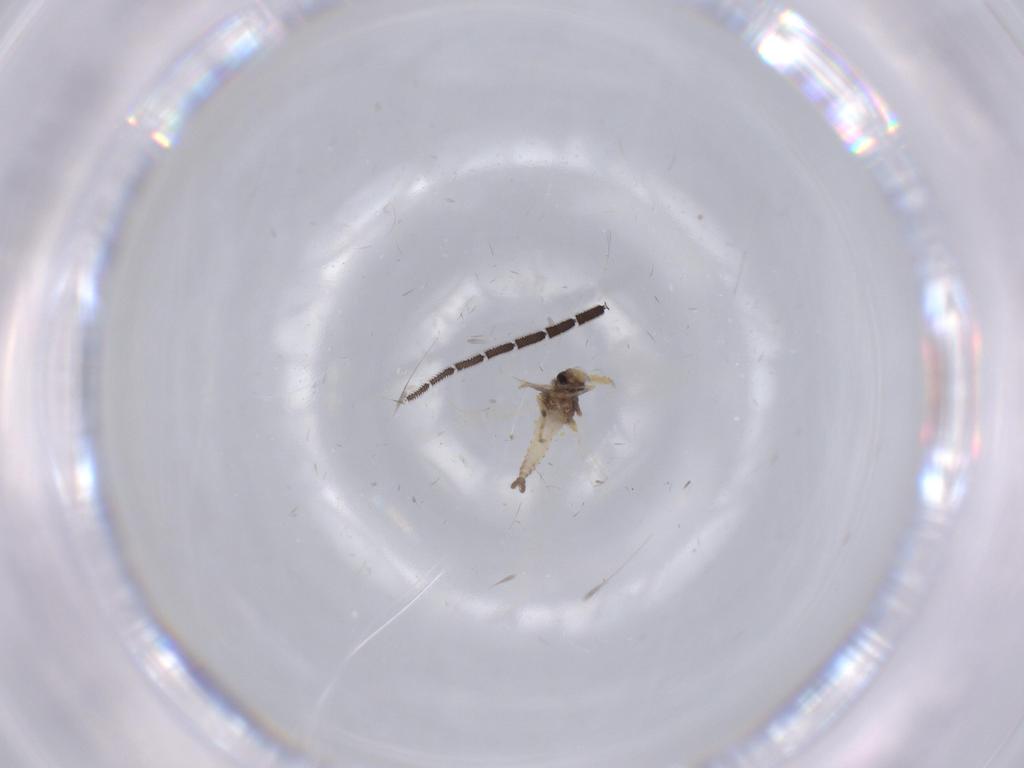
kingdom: Animalia
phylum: Arthropoda
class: Insecta
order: Diptera
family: Ceratopogonidae
